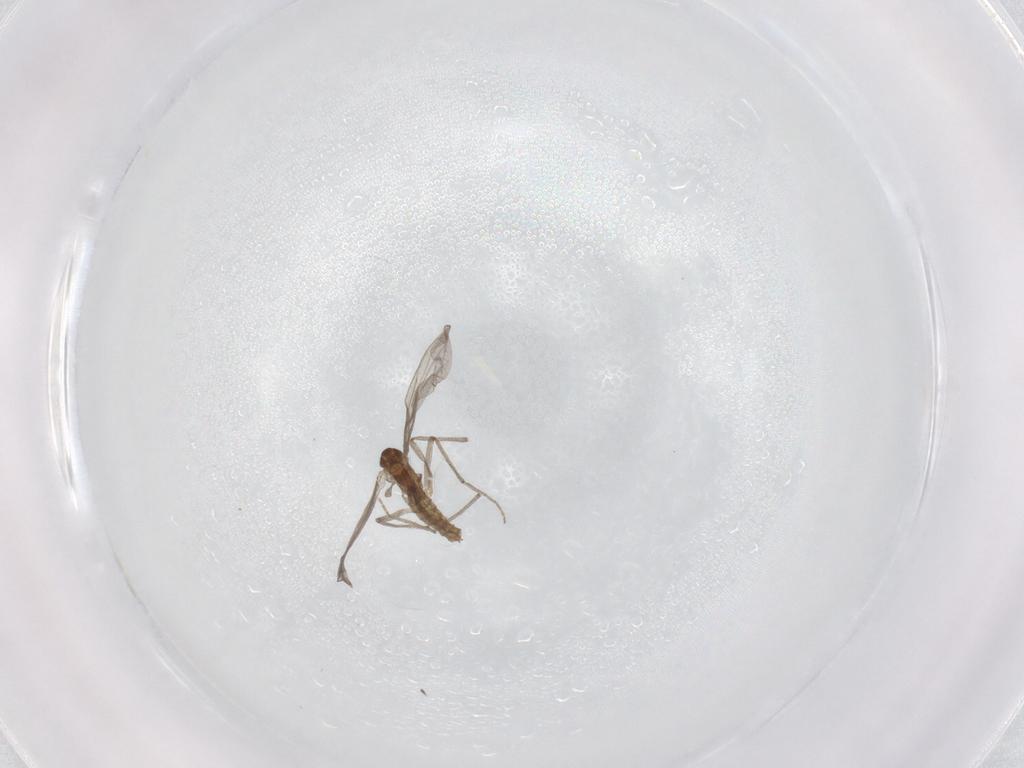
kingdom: Animalia
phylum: Arthropoda
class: Insecta
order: Diptera
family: Chironomidae
